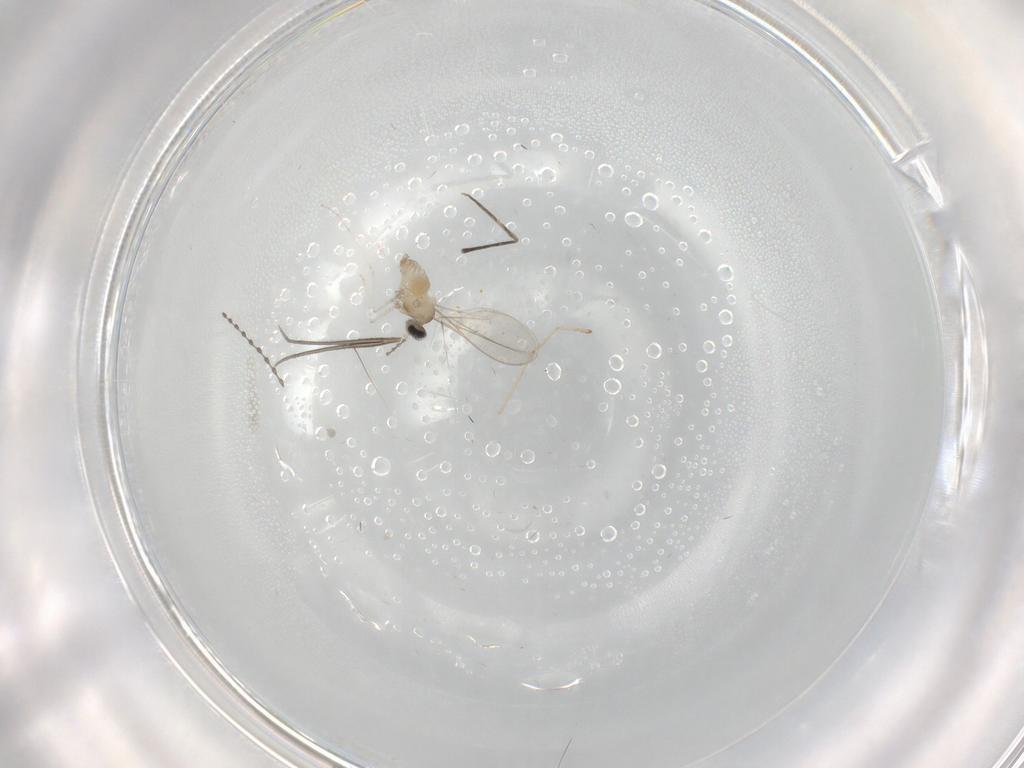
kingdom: Animalia
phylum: Arthropoda
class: Insecta
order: Diptera
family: Cecidomyiidae
